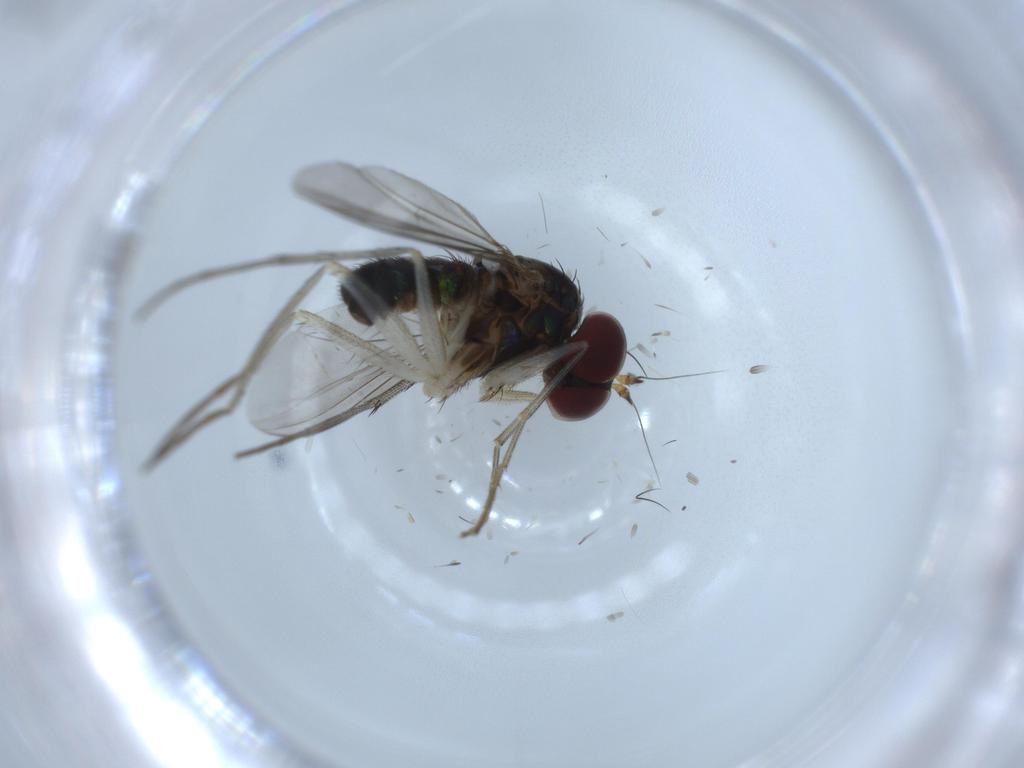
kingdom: Animalia
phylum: Arthropoda
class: Insecta
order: Diptera
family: Dolichopodidae
